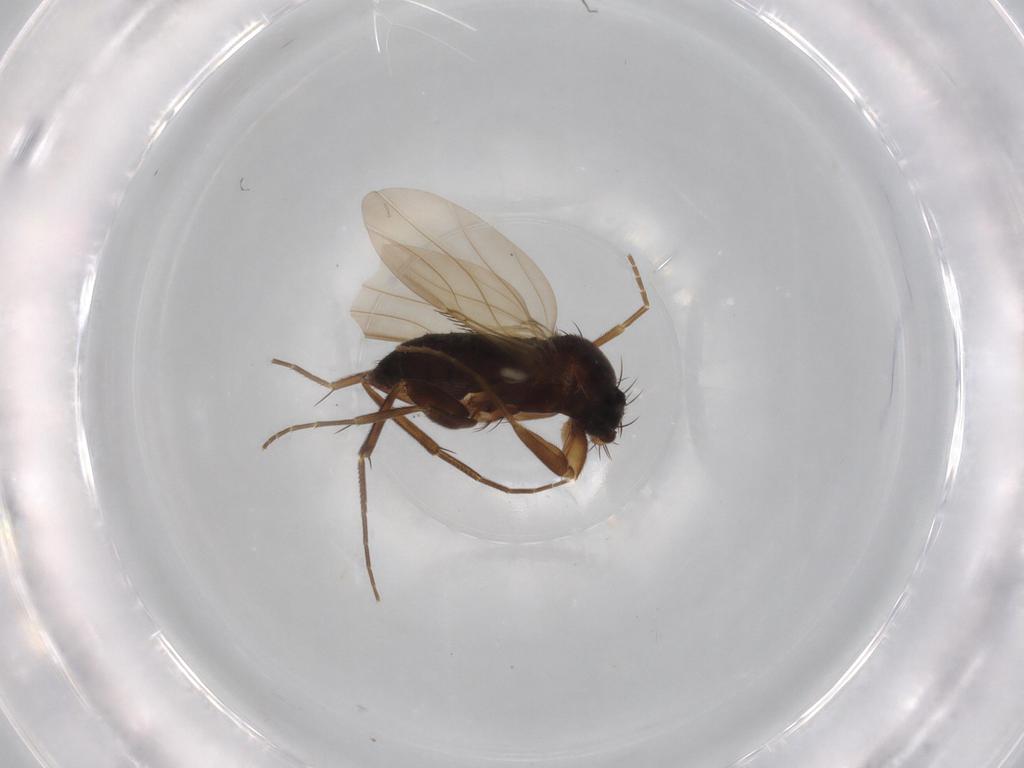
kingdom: Animalia
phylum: Arthropoda
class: Insecta
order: Diptera
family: Phoridae
